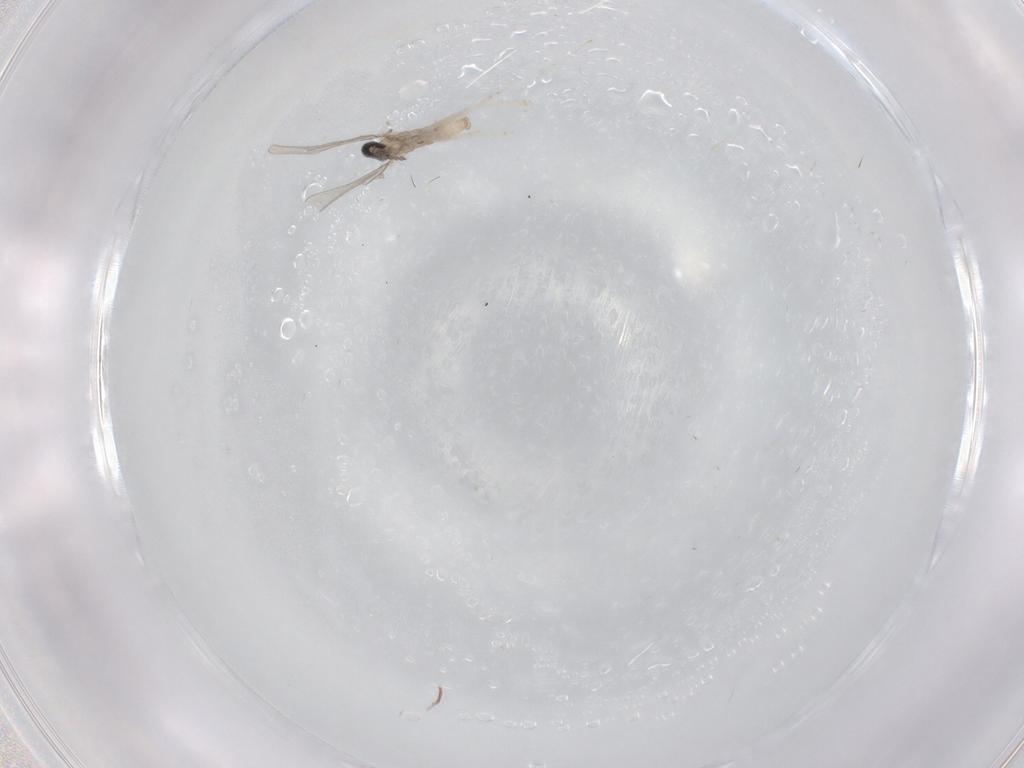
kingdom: Animalia
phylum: Arthropoda
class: Insecta
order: Diptera
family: Cecidomyiidae
